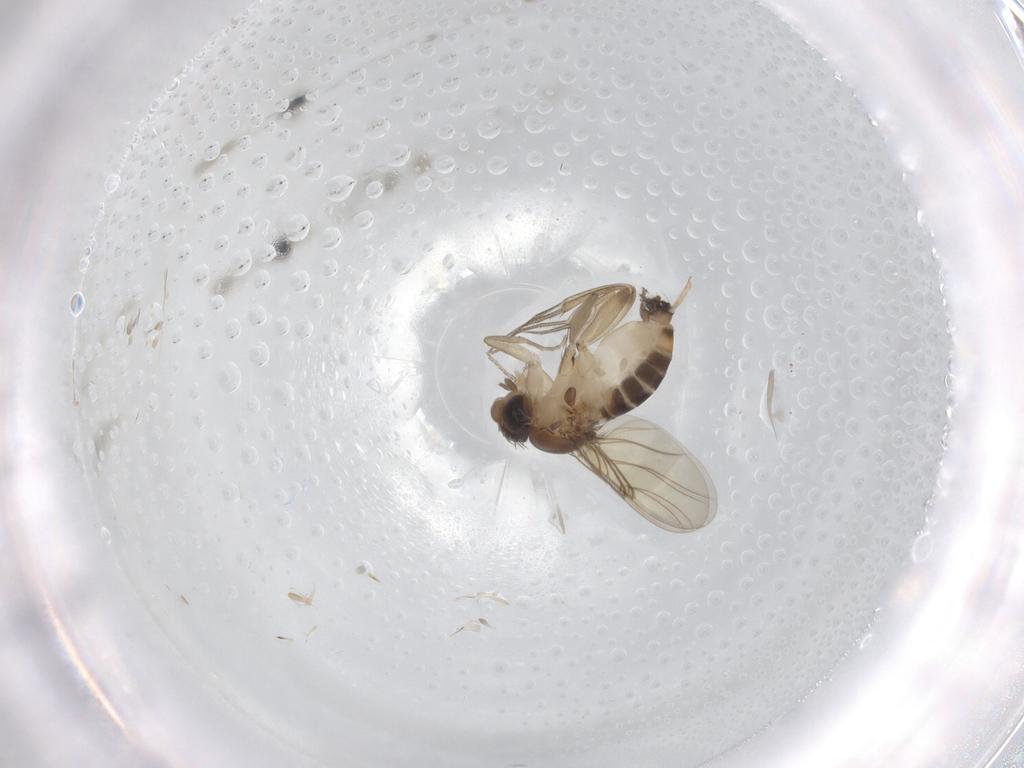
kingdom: Animalia
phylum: Arthropoda
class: Insecta
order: Diptera
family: Phoridae
